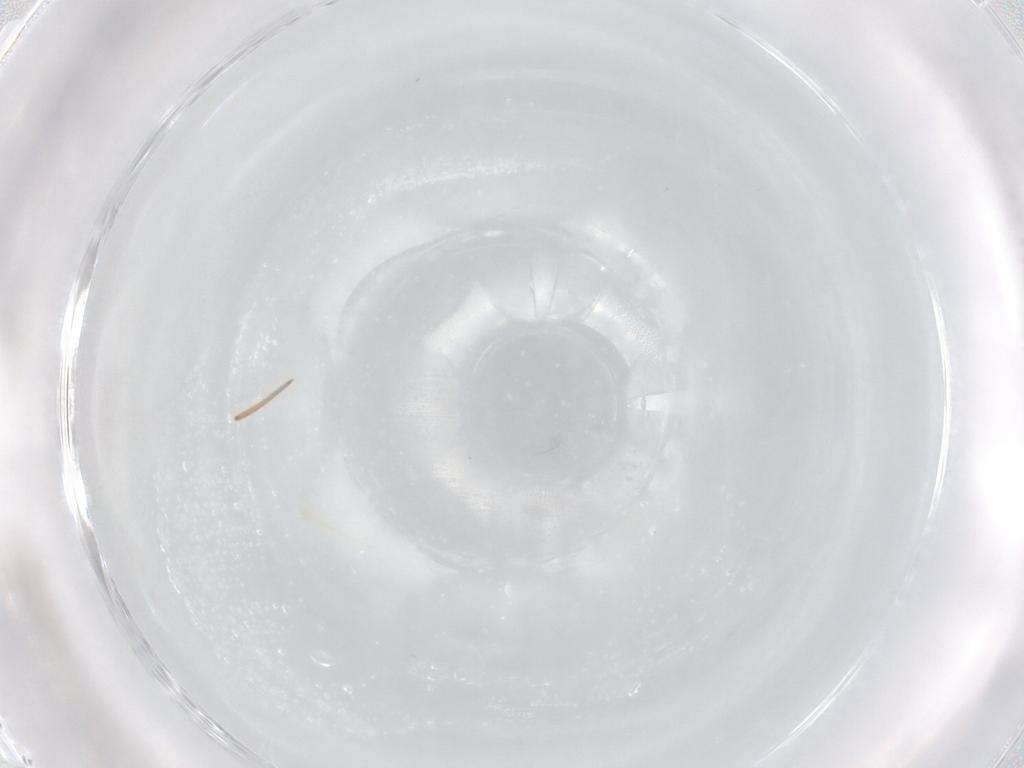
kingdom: Animalia
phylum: Arthropoda
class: Insecta
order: Hemiptera
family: Cicadellidae
